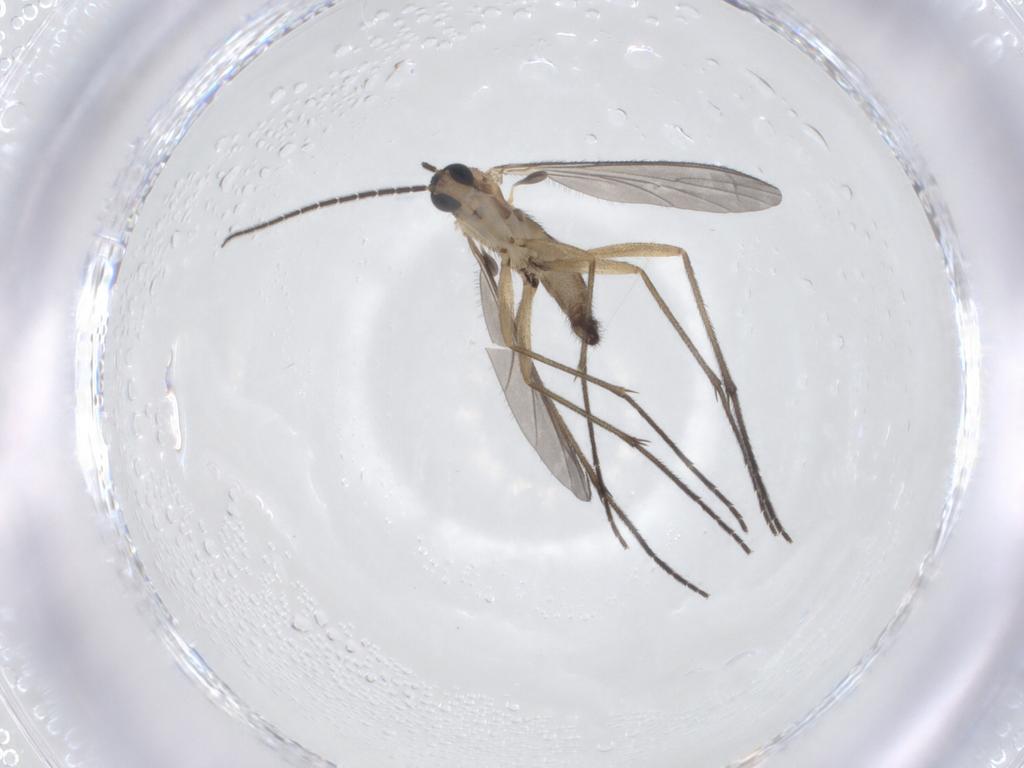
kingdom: Animalia
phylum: Arthropoda
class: Insecta
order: Diptera
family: Sciaridae
